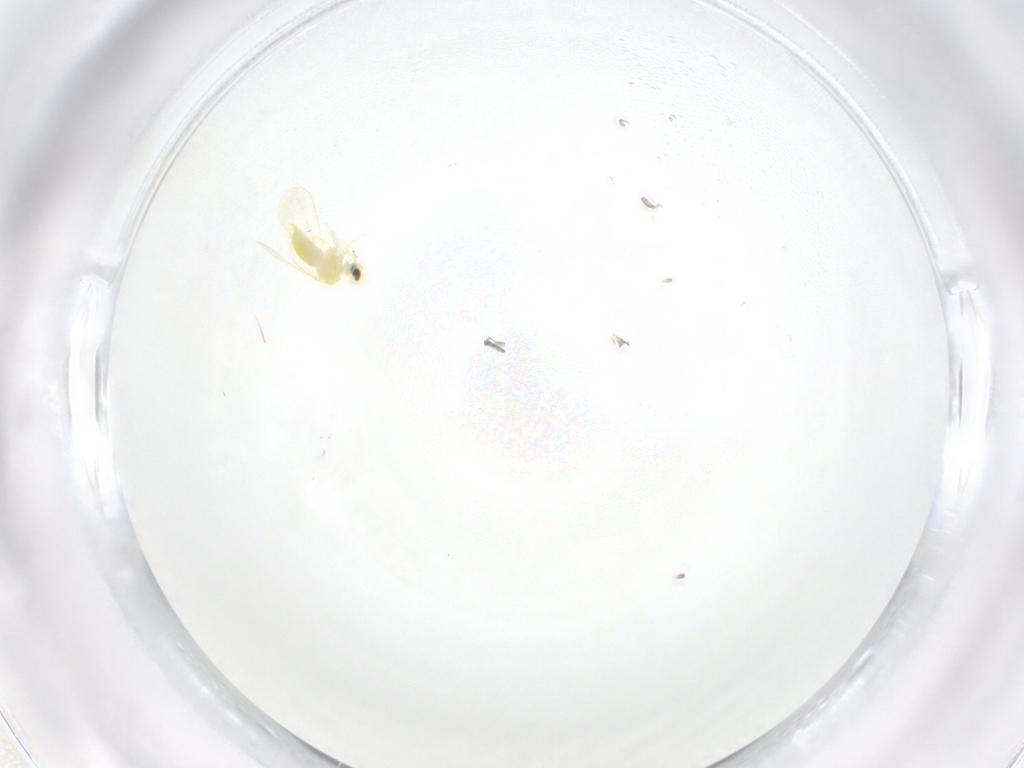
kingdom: Animalia
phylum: Arthropoda
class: Insecta
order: Hemiptera
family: Aleyrodidae
